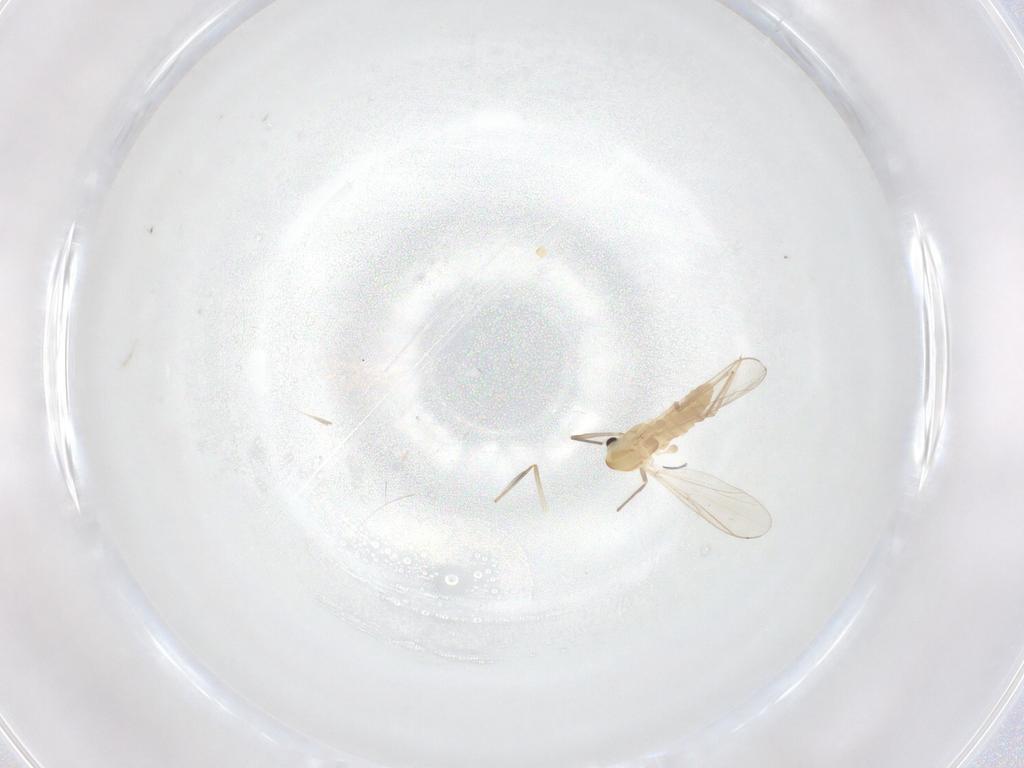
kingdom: Animalia
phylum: Arthropoda
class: Insecta
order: Diptera
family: Chironomidae
